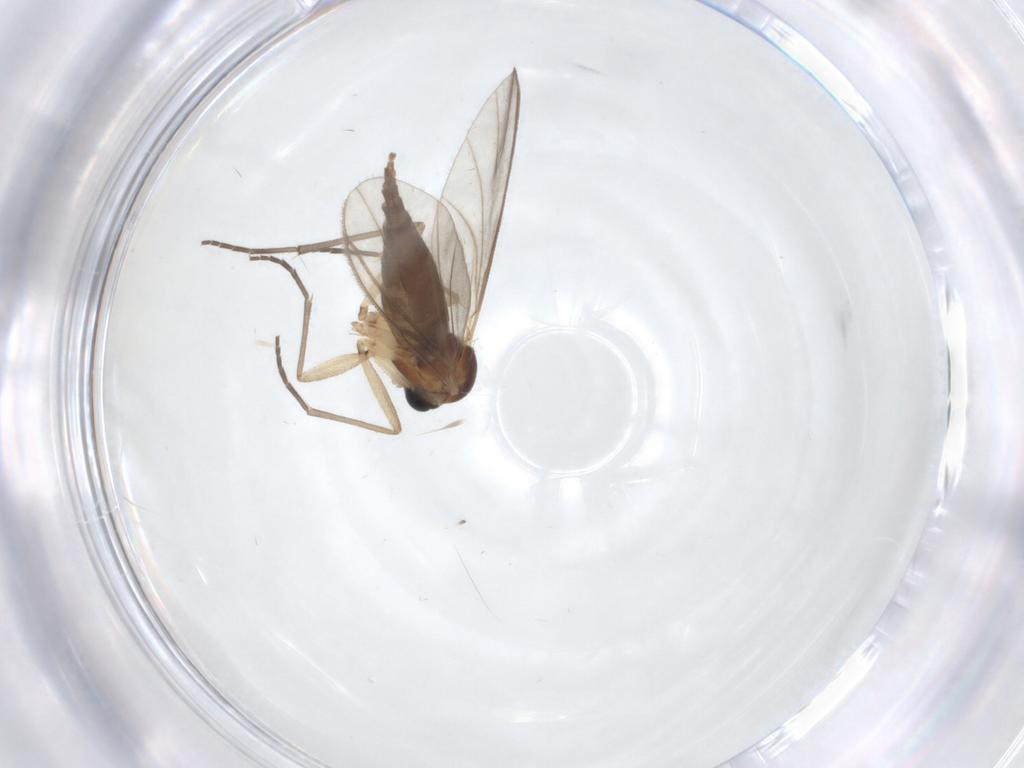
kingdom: Animalia
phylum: Arthropoda
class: Insecta
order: Diptera
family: Sciaridae
